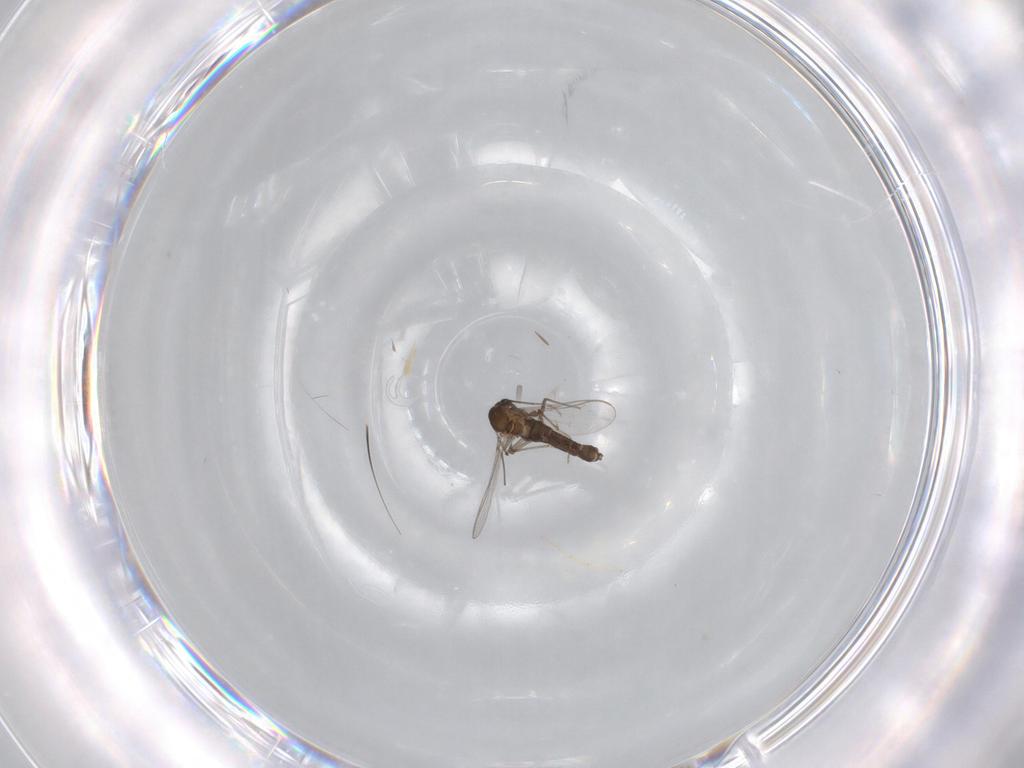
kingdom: Animalia
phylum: Arthropoda
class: Insecta
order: Diptera
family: Chironomidae
